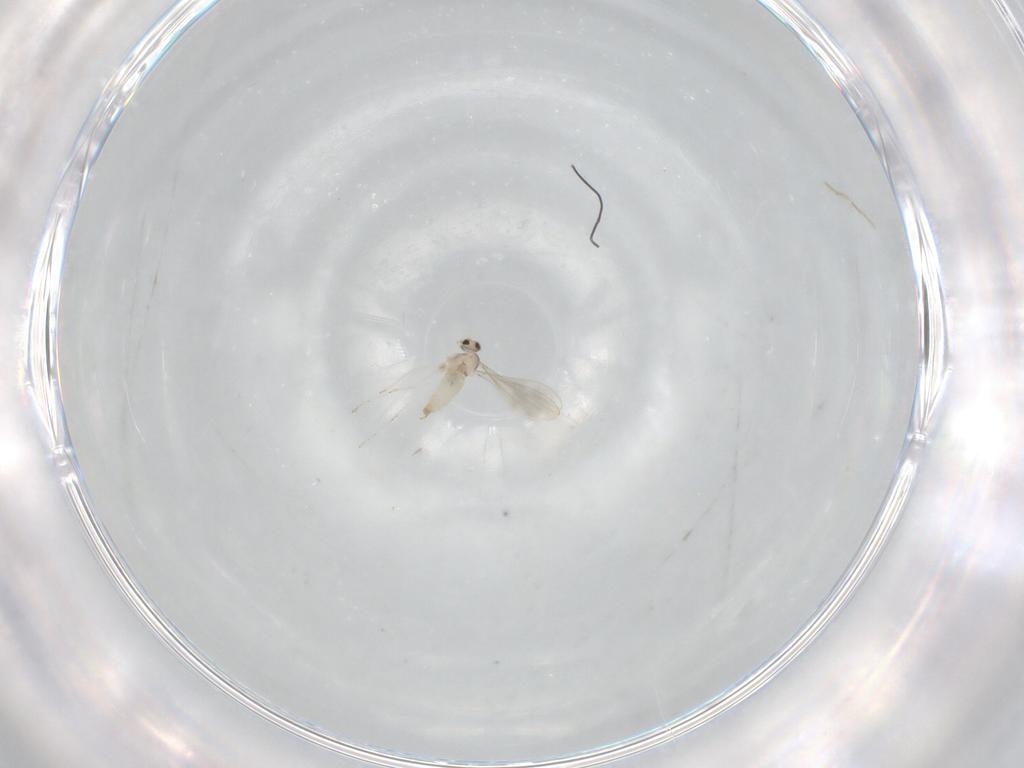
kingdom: Animalia
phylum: Arthropoda
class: Insecta
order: Diptera
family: Cecidomyiidae
